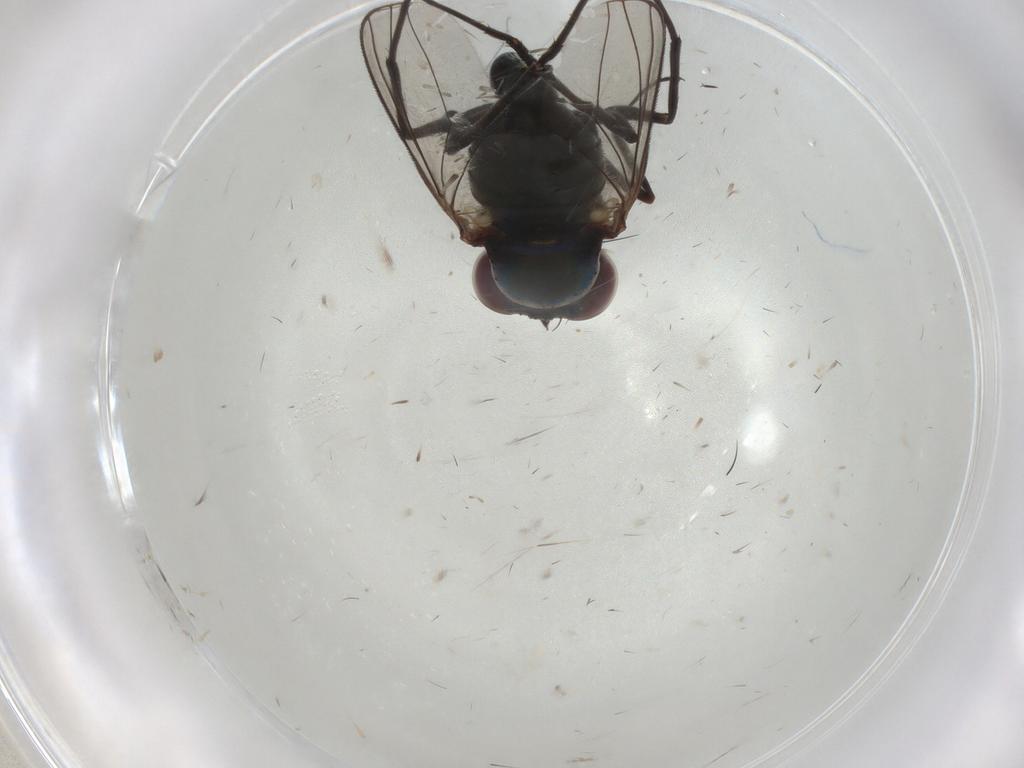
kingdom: Animalia
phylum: Arthropoda
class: Insecta
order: Diptera
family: Dolichopodidae
